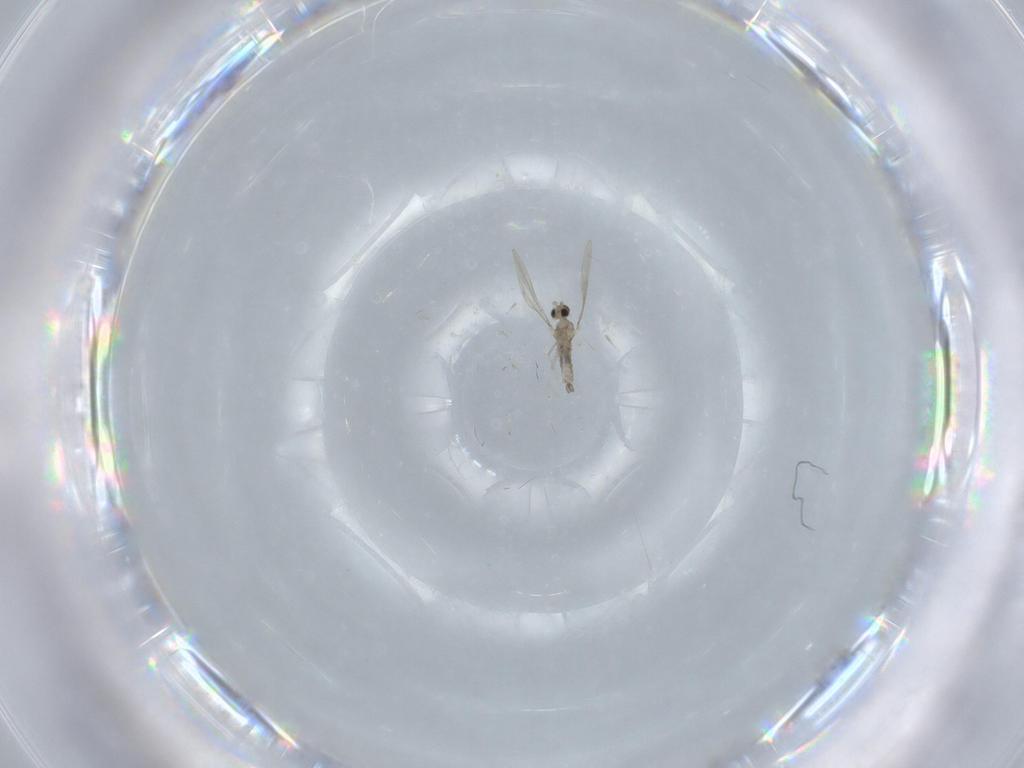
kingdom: Animalia
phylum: Arthropoda
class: Insecta
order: Diptera
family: Cecidomyiidae
